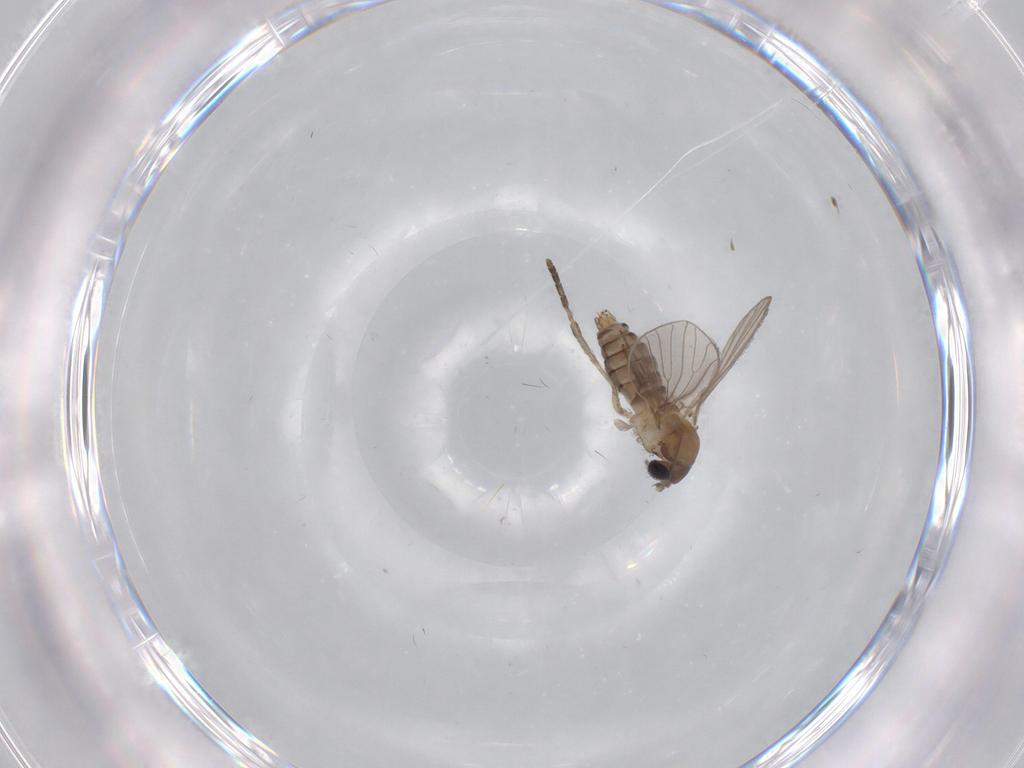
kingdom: Animalia
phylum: Arthropoda
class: Insecta
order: Diptera
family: Psychodidae
